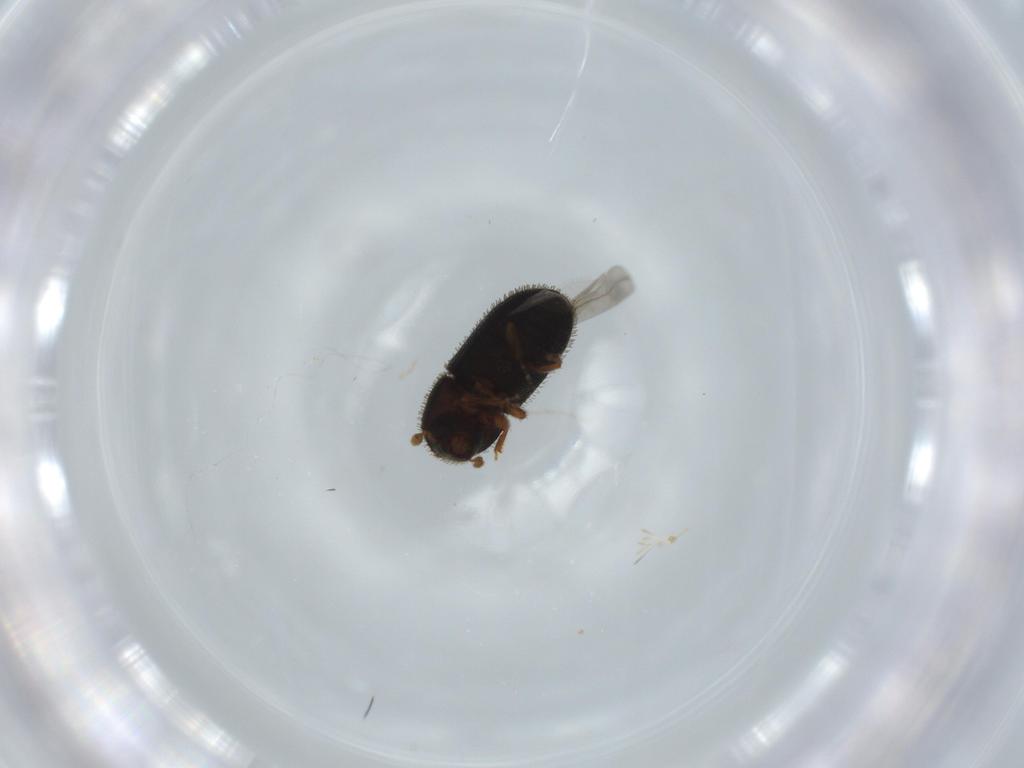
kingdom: Animalia
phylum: Arthropoda
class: Insecta
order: Coleoptera
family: Curculionidae
